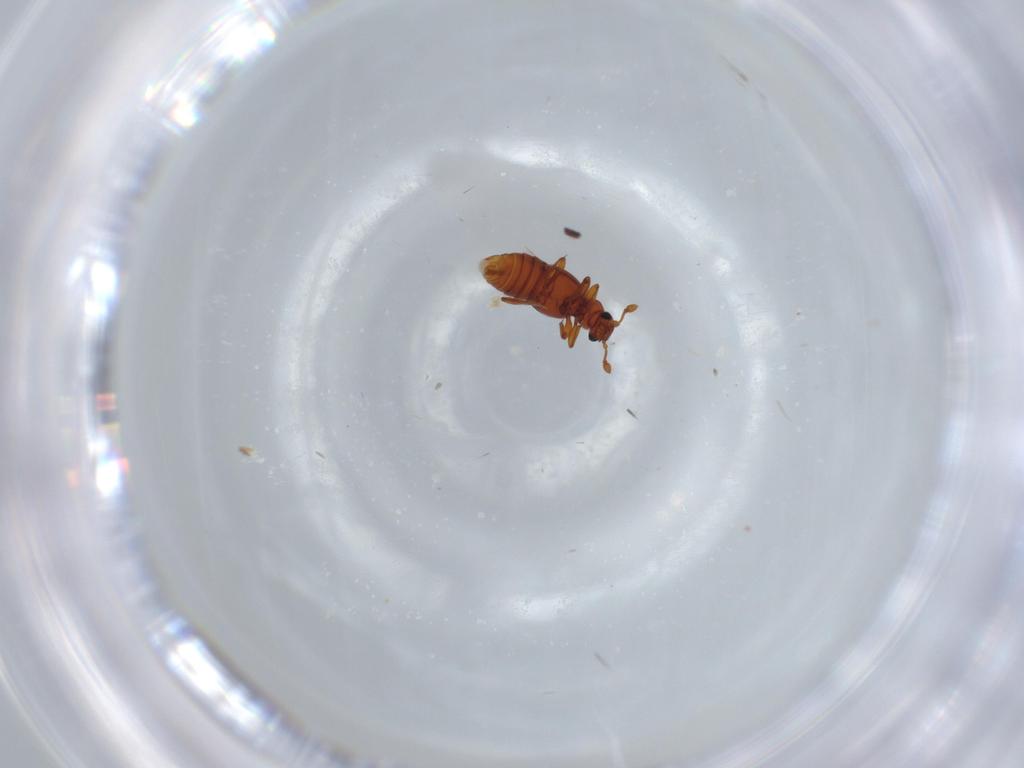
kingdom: Animalia
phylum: Arthropoda
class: Insecta
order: Coleoptera
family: Staphylinidae
